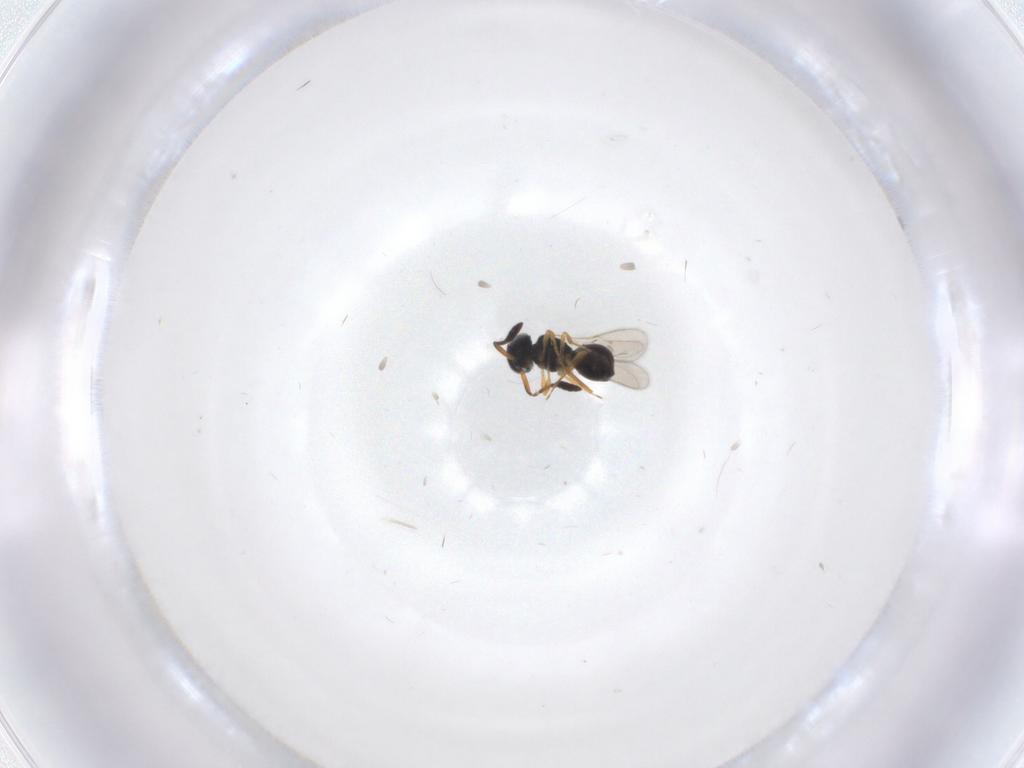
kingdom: Animalia
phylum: Arthropoda
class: Insecta
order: Hymenoptera
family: Scelionidae
